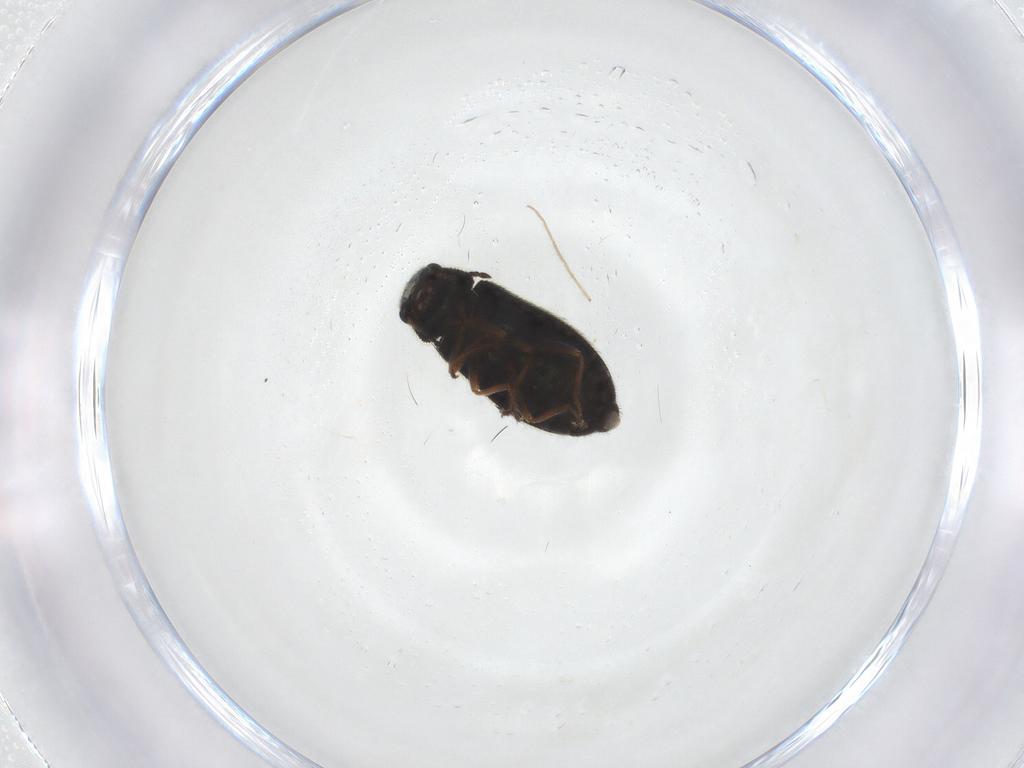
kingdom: Animalia
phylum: Arthropoda
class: Insecta
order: Coleoptera
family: Melyridae
